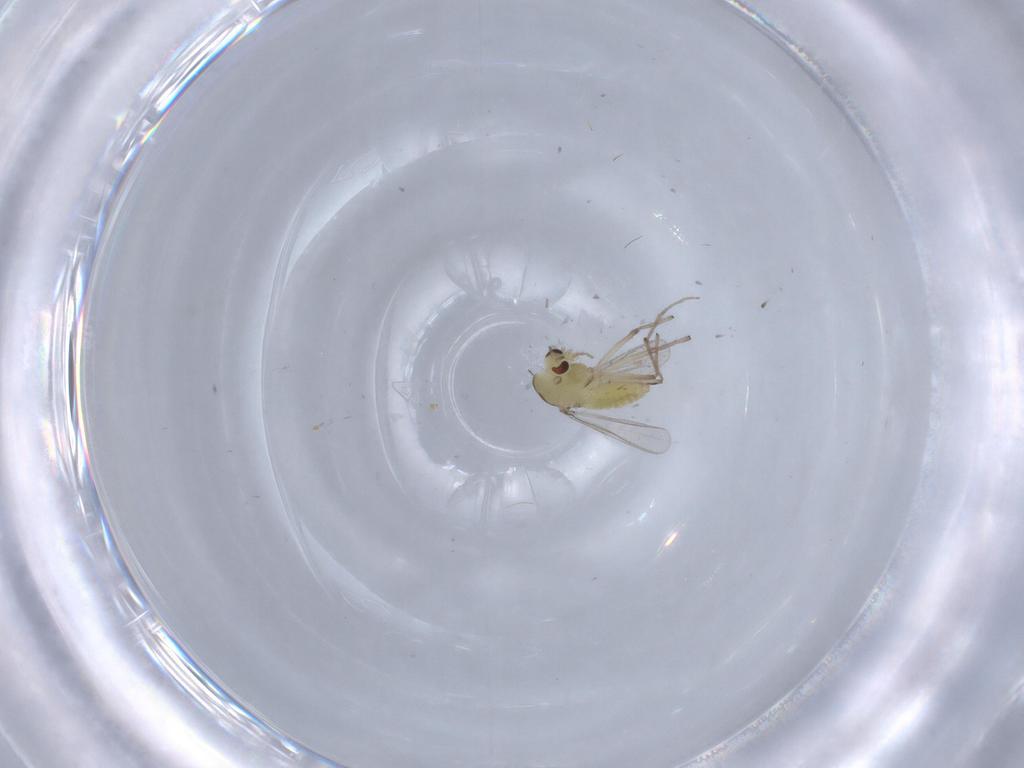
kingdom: Animalia
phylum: Arthropoda
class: Insecta
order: Diptera
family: Chironomidae
